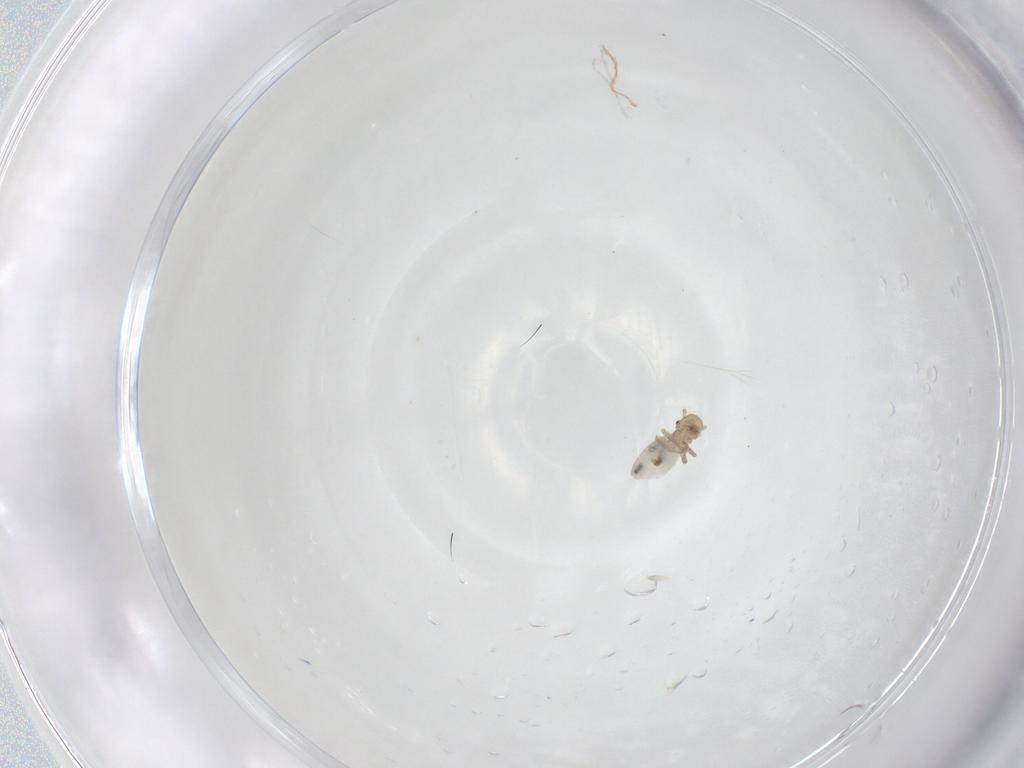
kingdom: Animalia
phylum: Arthropoda
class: Insecta
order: Psocodea
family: Philotarsidae
